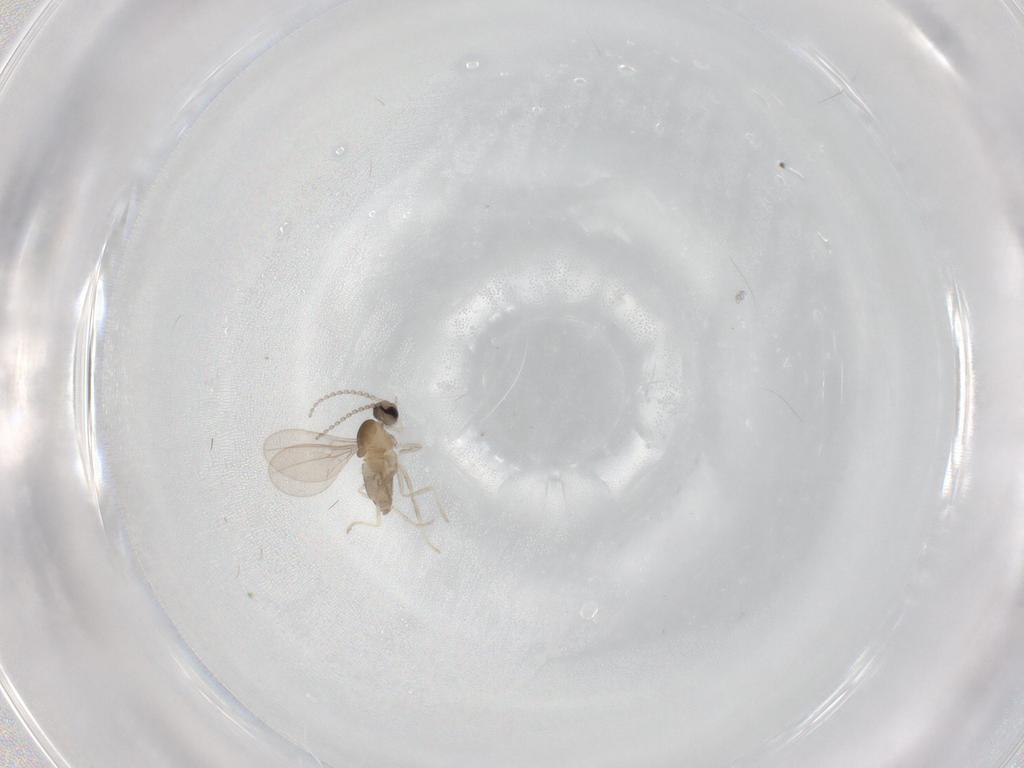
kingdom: Animalia
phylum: Arthropoda
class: Insecta
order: Diptera
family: Cecidomyiidae
